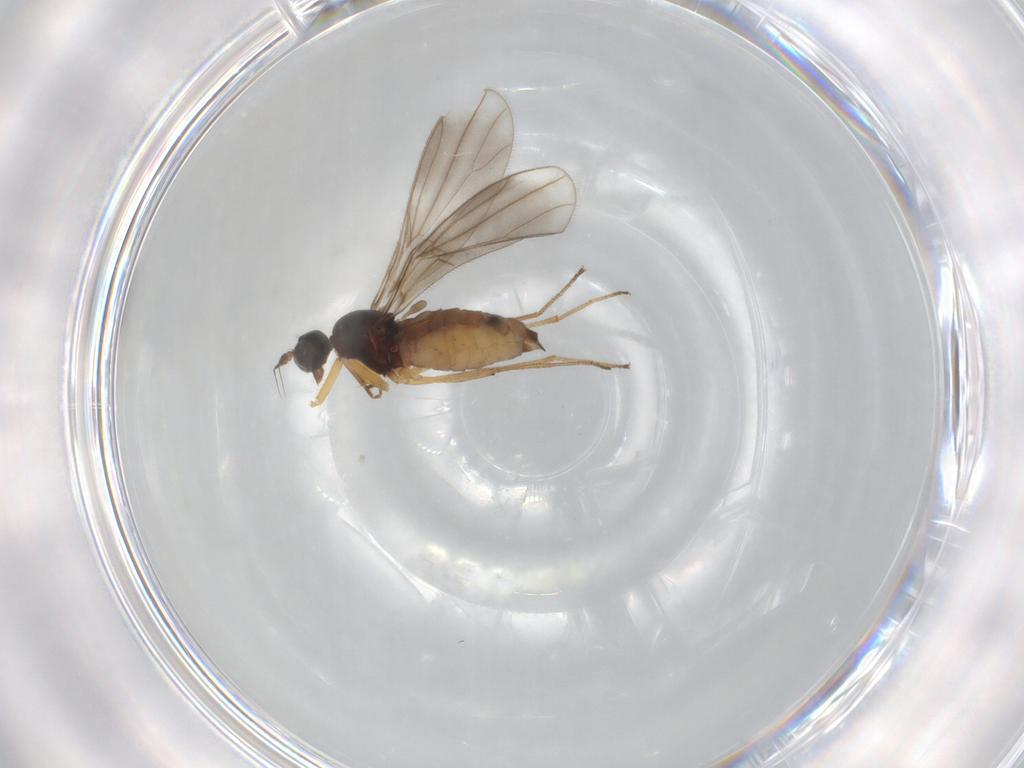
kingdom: Animalia
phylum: Arthropoda
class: Insecta
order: Diptera
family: Empididae
